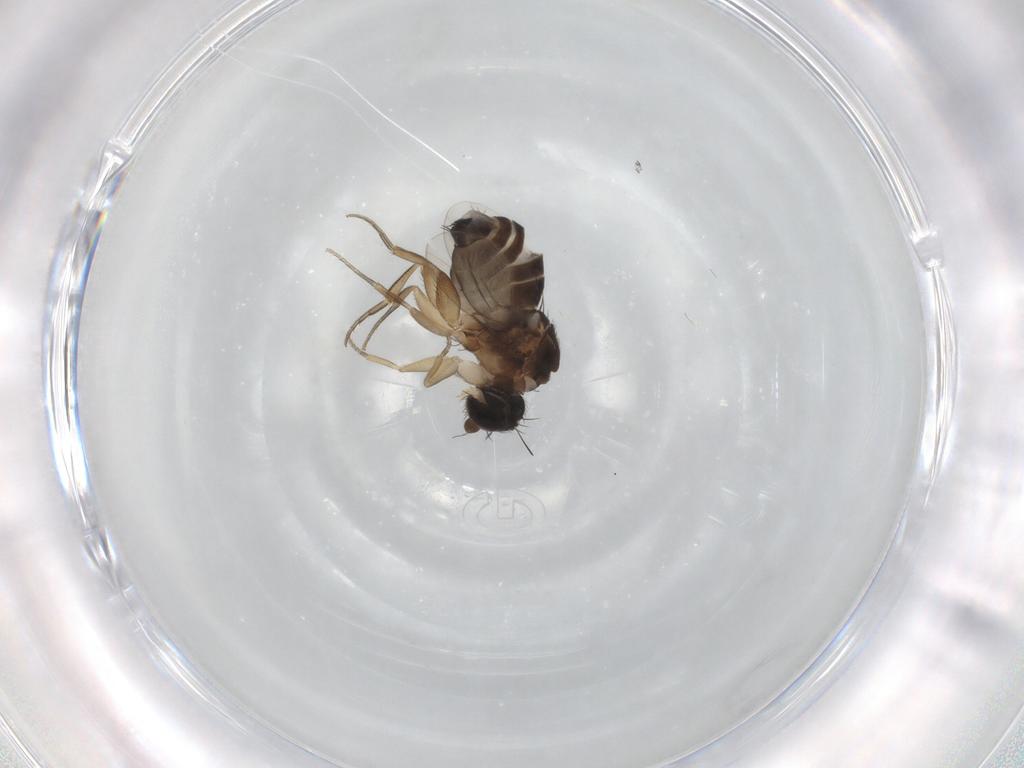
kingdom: Animalia
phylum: Arthropoda
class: Insecta
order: Diptera
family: Phoridae
